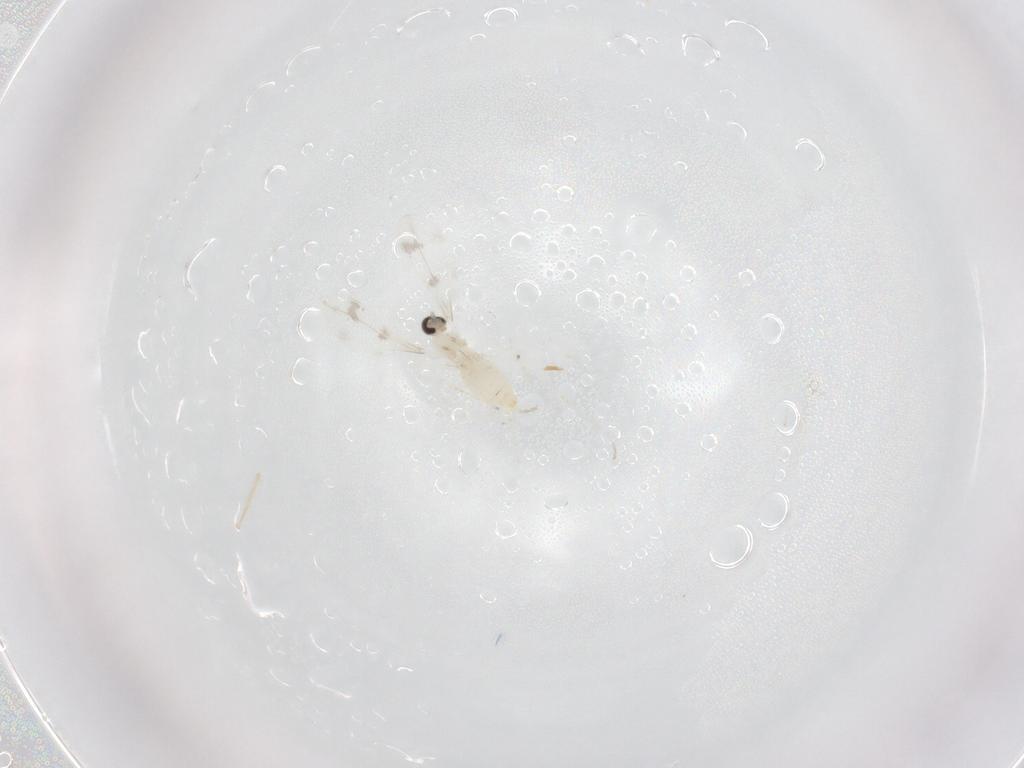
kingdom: Animalia
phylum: Arthropoda
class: Insecta
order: Diptera
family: Cecidomyiidae
